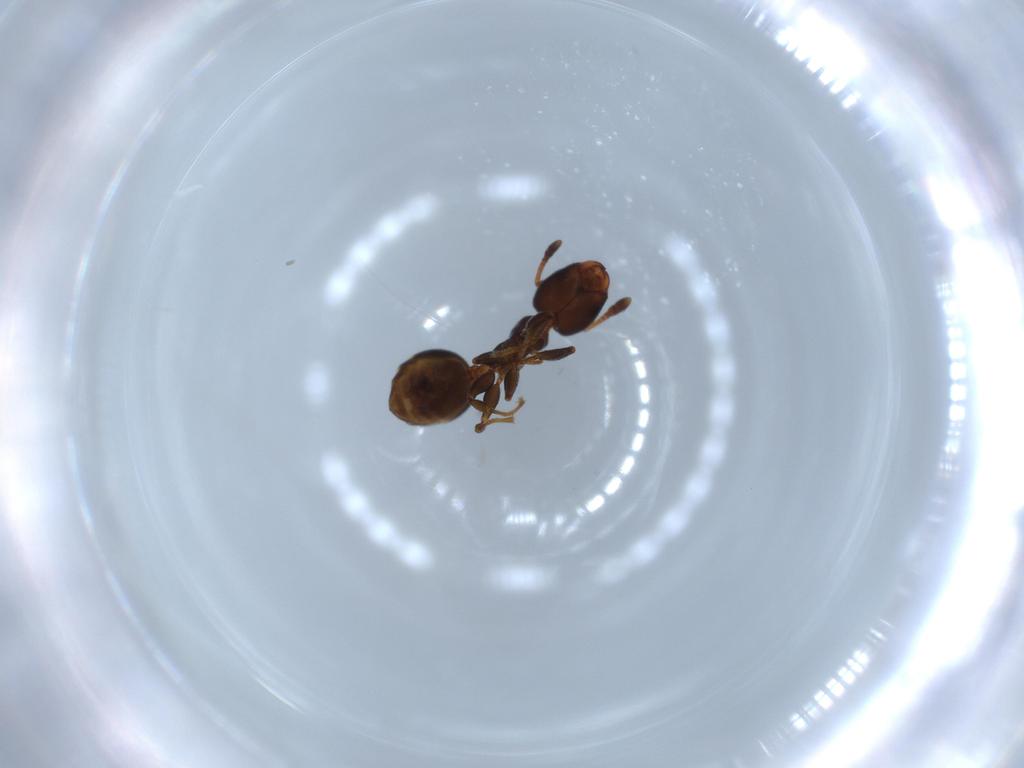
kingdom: Animalia
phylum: Arthropoda
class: Insecta
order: Hymenoptera
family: Formicidae
